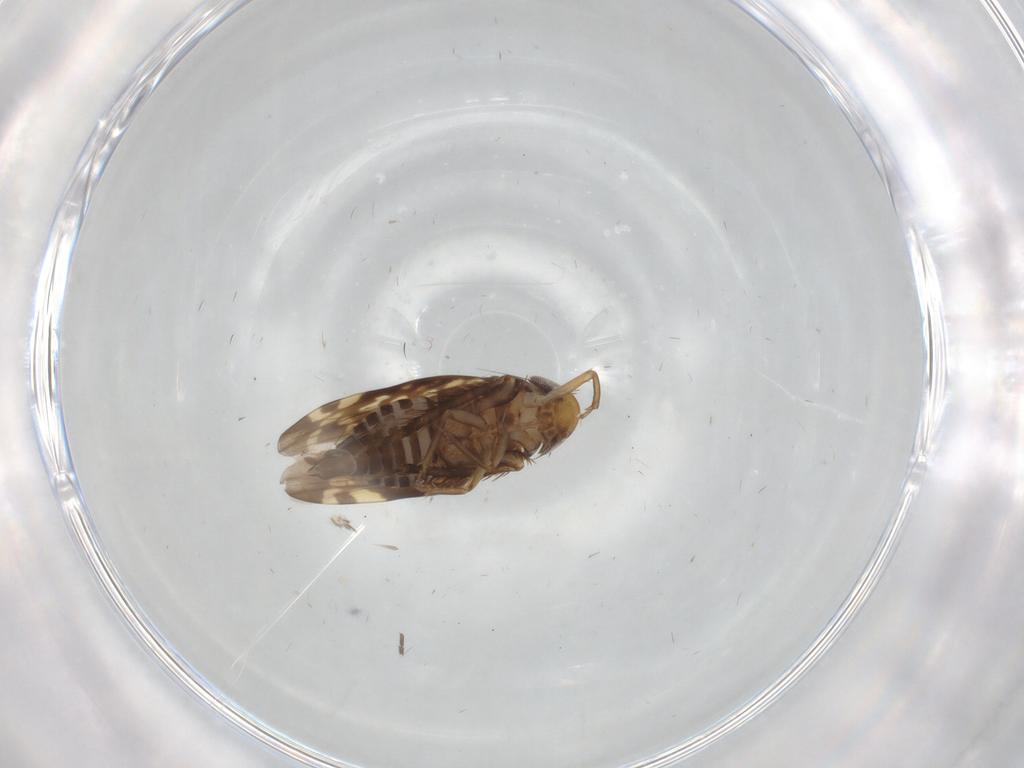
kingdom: Animalia
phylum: Arthropoda
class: Insecta
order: Hemiptera
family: Cicadellidae
